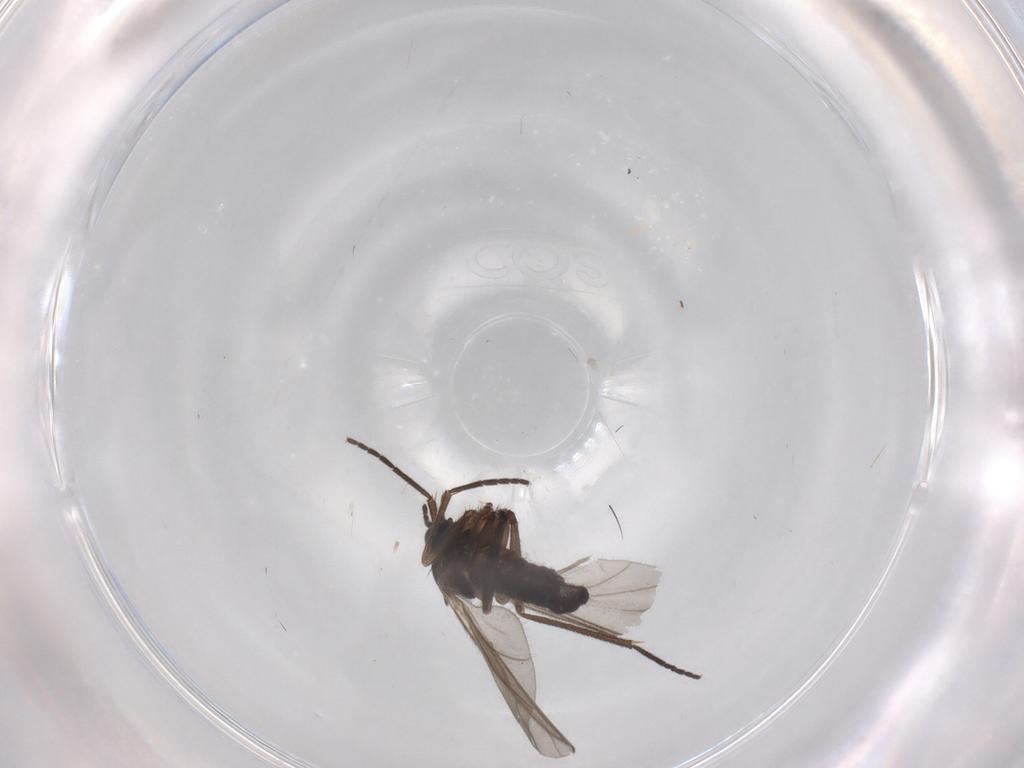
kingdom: Animalia
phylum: Arthropoda
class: Insecta
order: Diptera
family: Sciaridae
